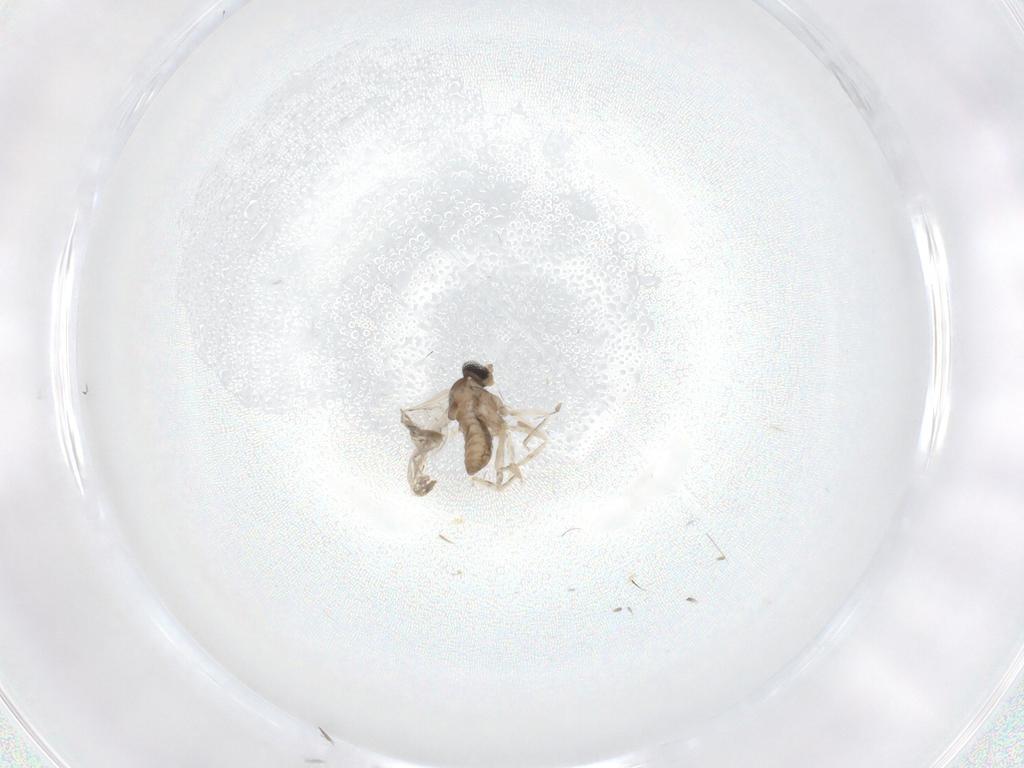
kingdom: Animalia
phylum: Arthropoda
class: Insecta
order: Diptera
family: Cecidomyiidae
